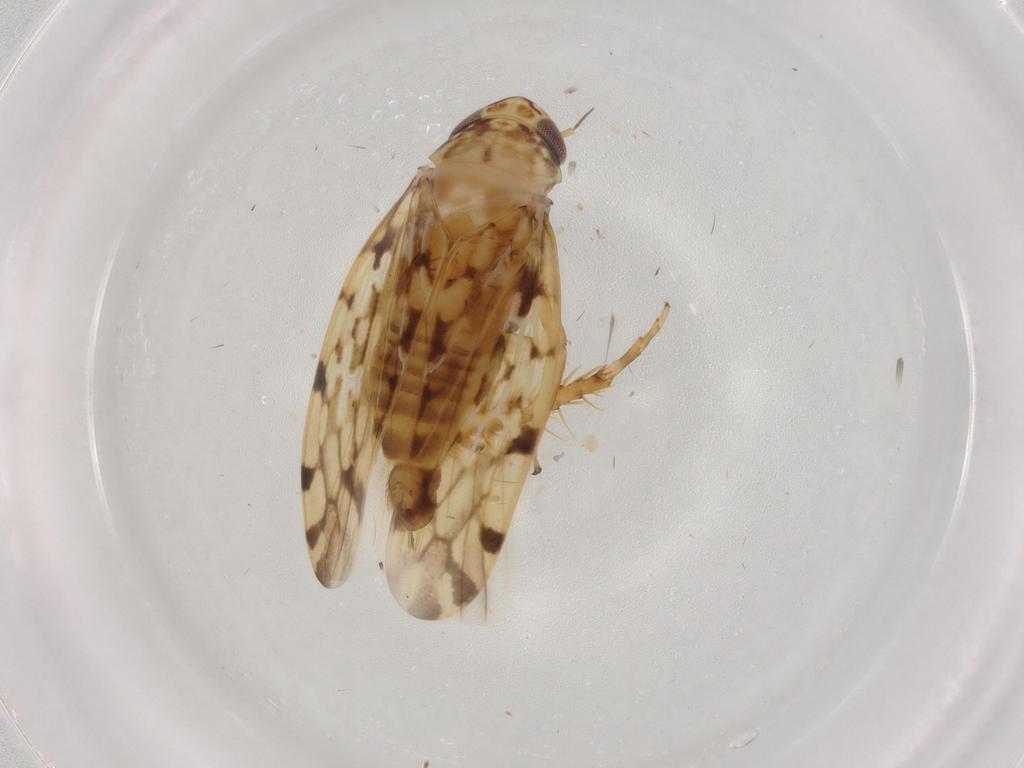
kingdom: Animalia
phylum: Arthropoda
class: Insecta
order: Hemiptera
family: Cicadellidae
